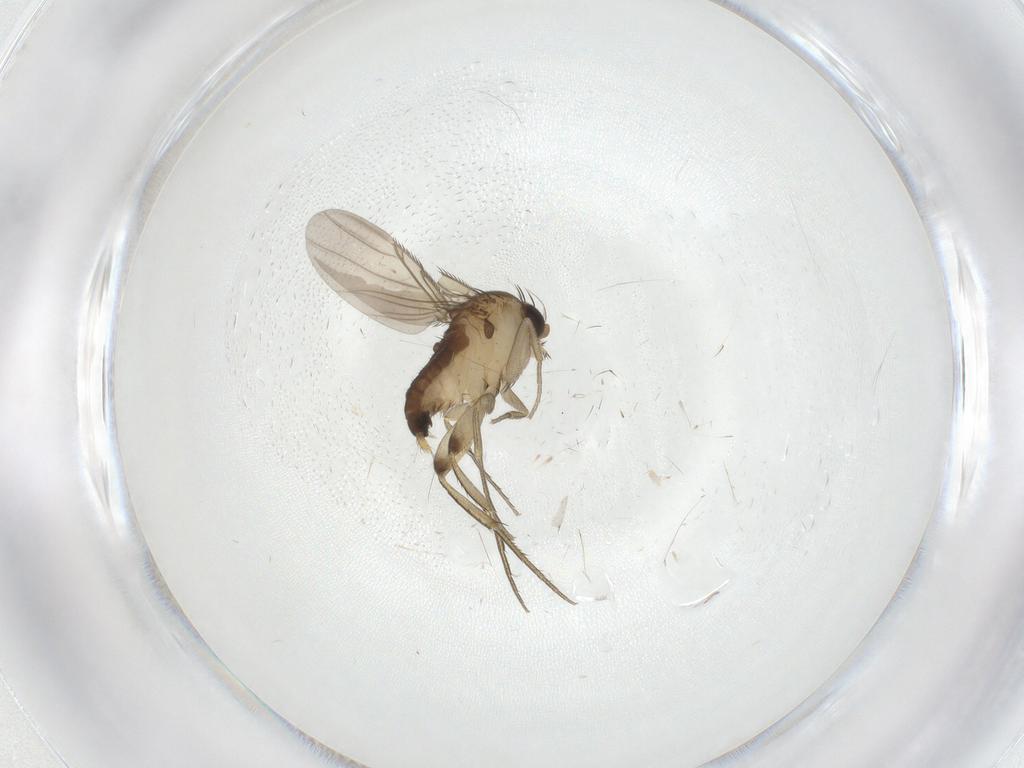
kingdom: Animalia
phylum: Arthropoda
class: Insecta
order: Diptera
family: Phoridae
